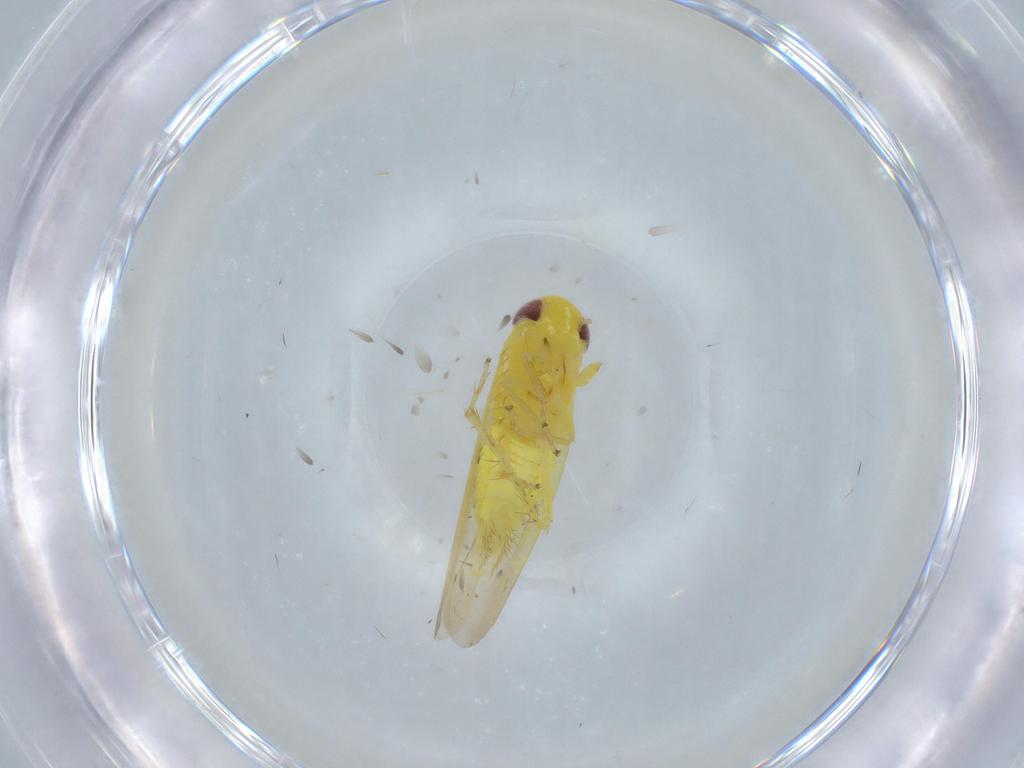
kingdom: Animalia
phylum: Arthropoda
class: Insecta
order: Hemiptera
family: Cicadellidae
